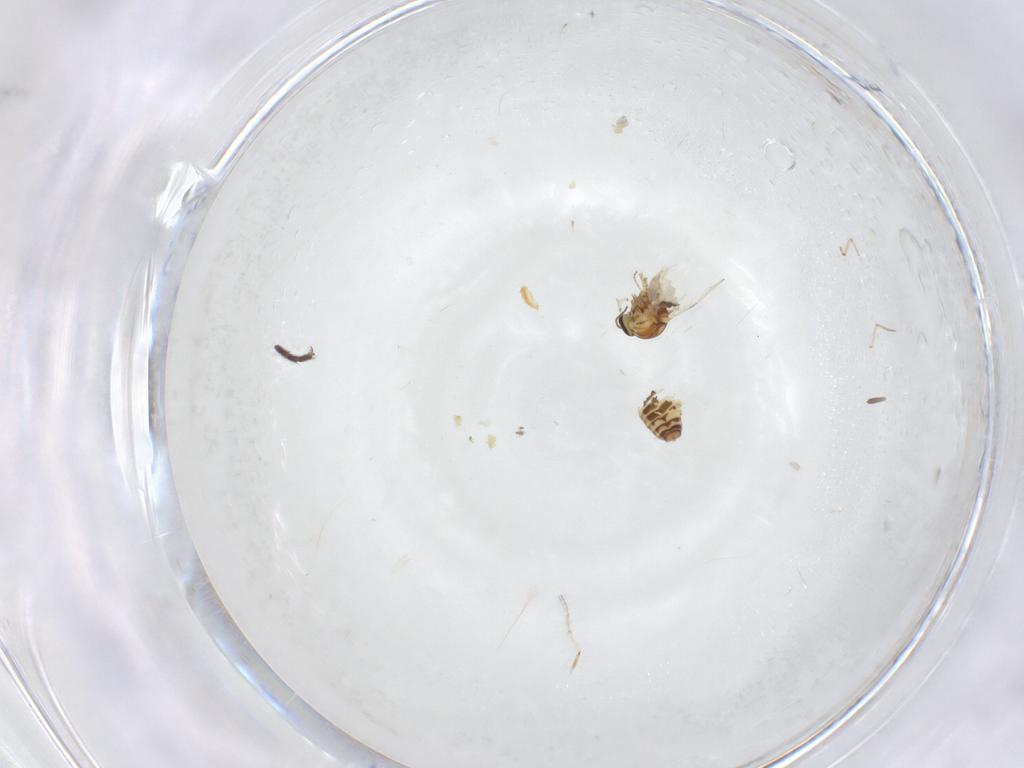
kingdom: Animalia
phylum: Arthropoda
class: Insecta
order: Diptera
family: Muscidae
